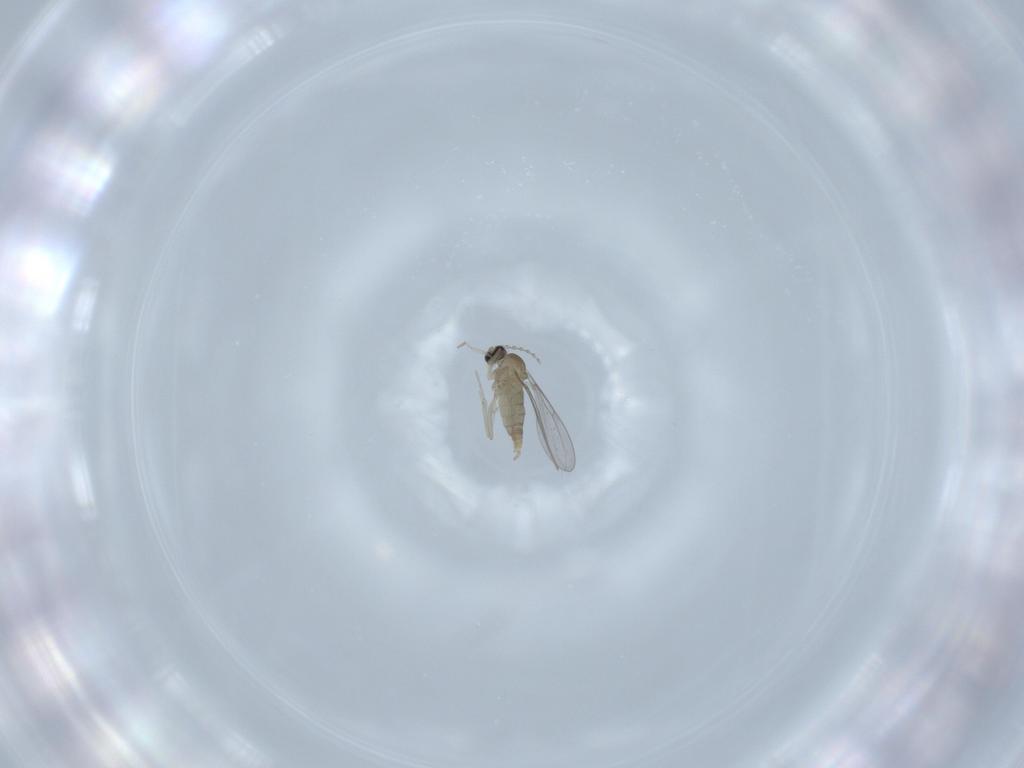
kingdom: Animalia
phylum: Arthropoda
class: Insecta
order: Diptera
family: Cecidomyiidae
